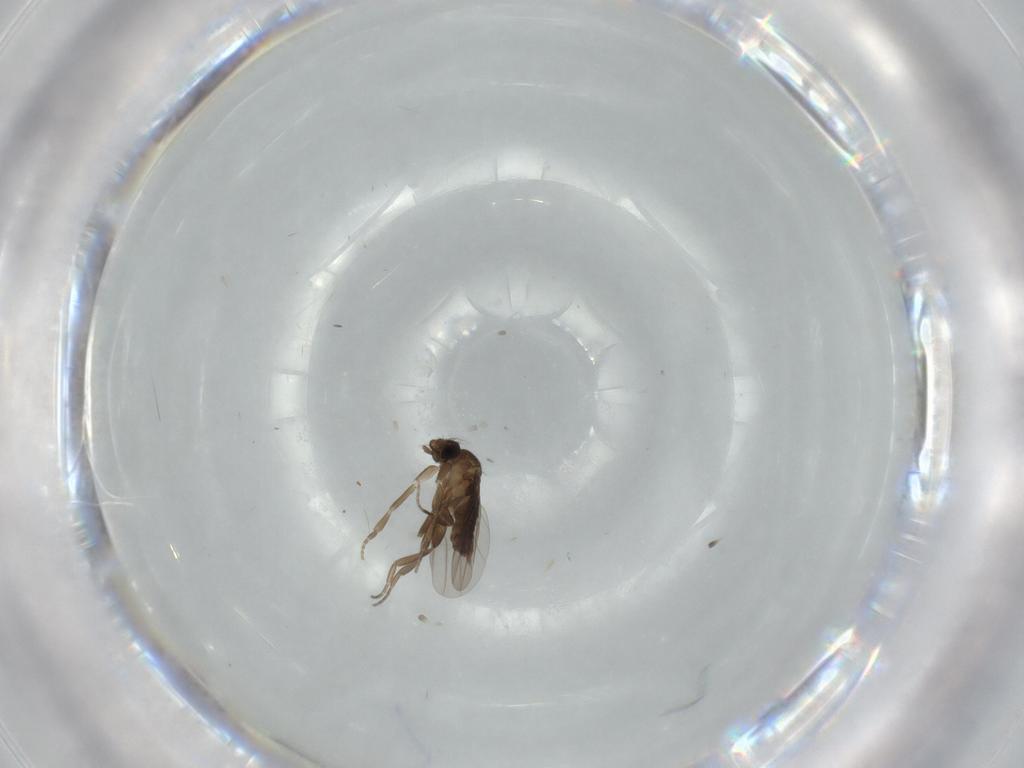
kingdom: Animalia
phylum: Arthropoda
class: Insecta
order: Diptera
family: Phoridae
